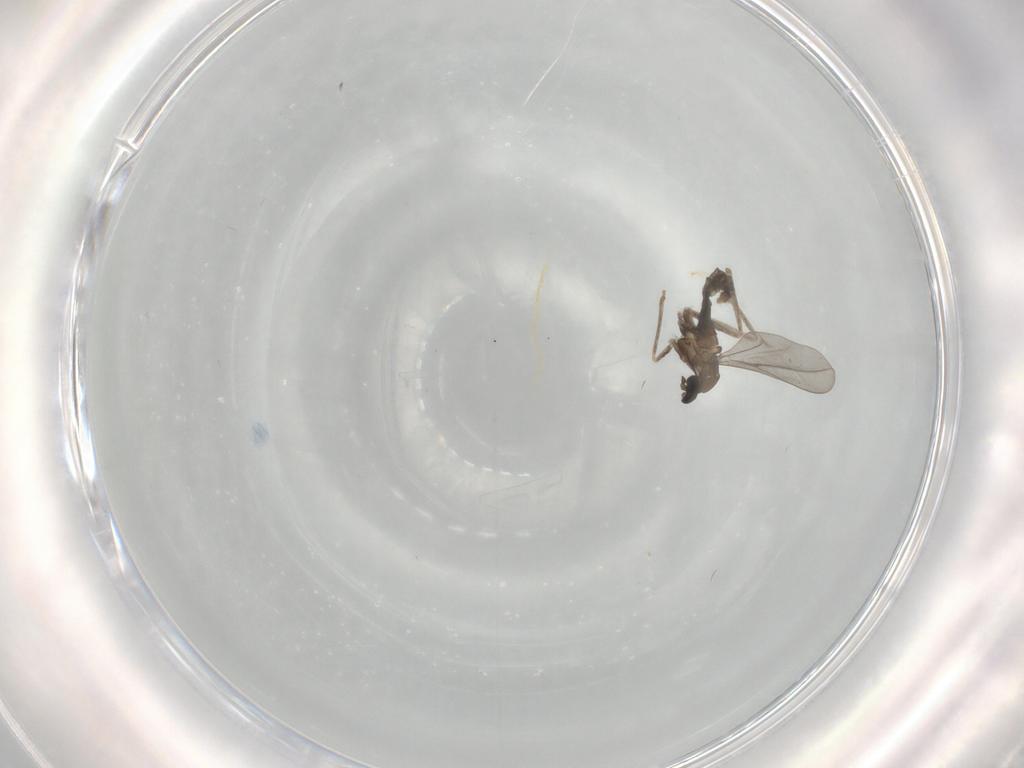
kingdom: Animalia
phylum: Arthropoda
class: Insecta
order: Diptera
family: Cecidomyiidae
